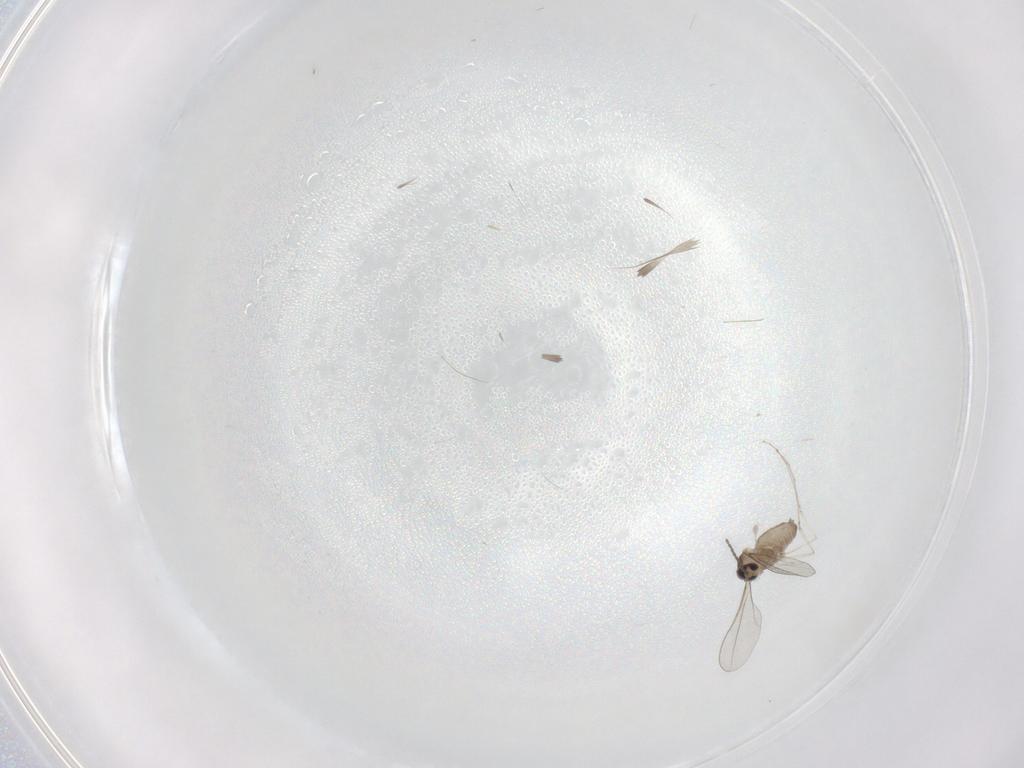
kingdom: Animalia
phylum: Arthropoda
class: Insecta
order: Diptera
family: Cecidomyiidae
